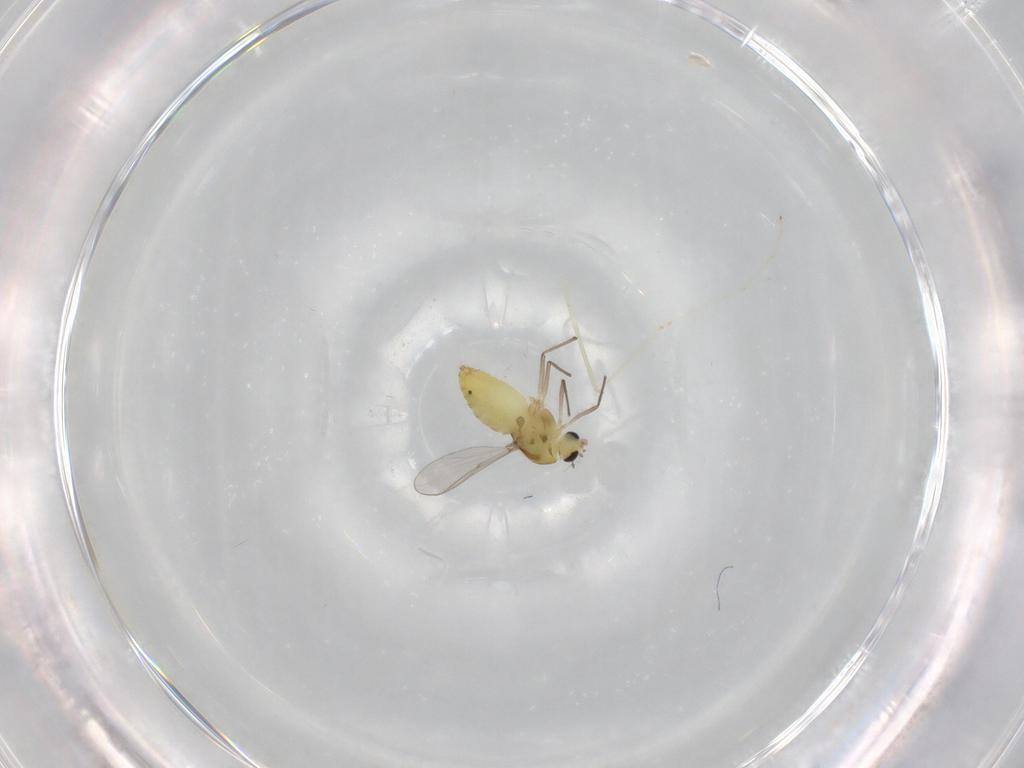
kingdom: Animalia
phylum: Arthropoda
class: Insecta
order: Diptera
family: Chironomidae
